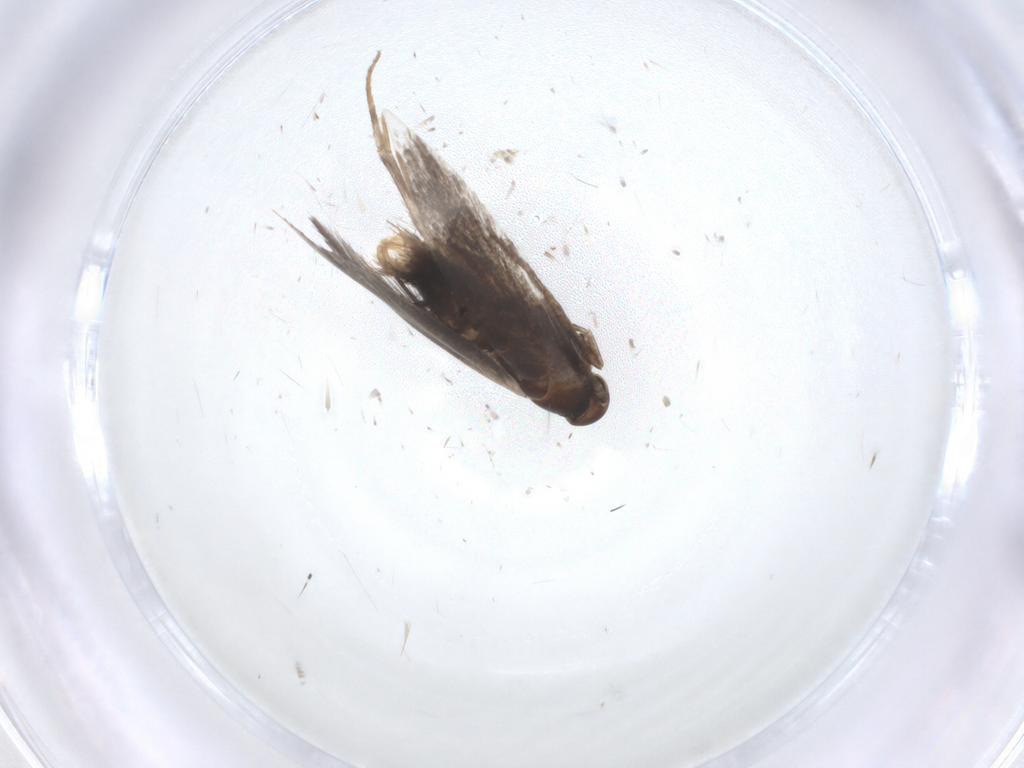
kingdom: Animalia
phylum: Arthropoda
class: Insecta
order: Lepidoptera
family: Elachistidae
